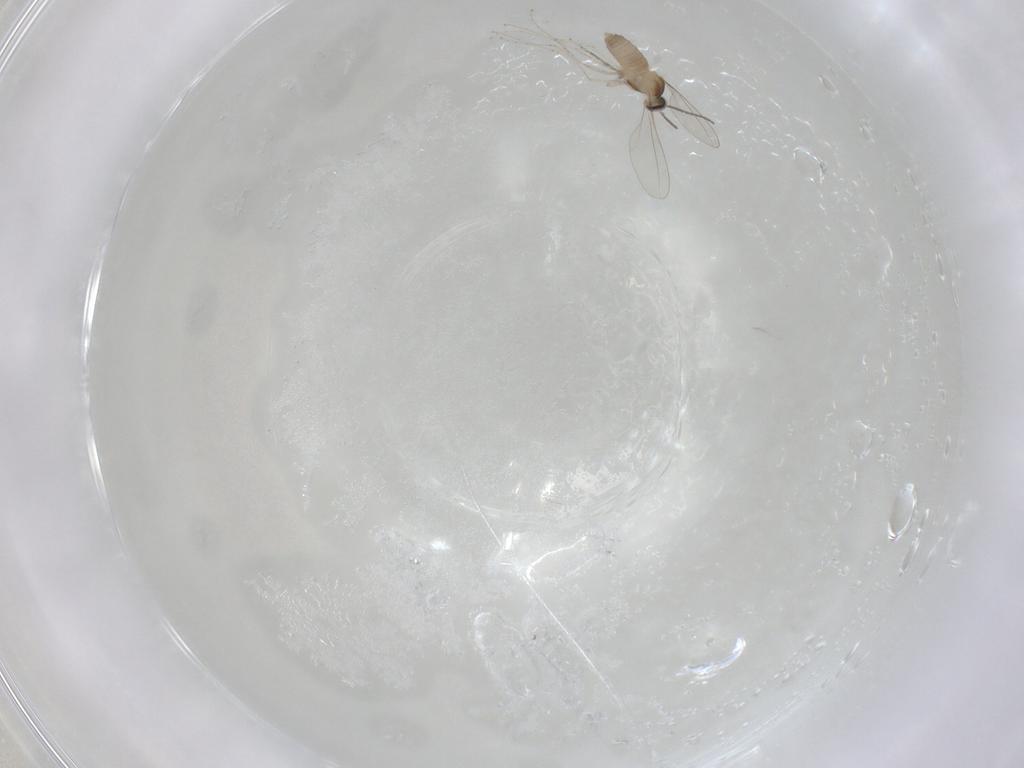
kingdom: Animalia
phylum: Arthropoda
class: Insecta
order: Diptera
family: Cecidomyiidae
